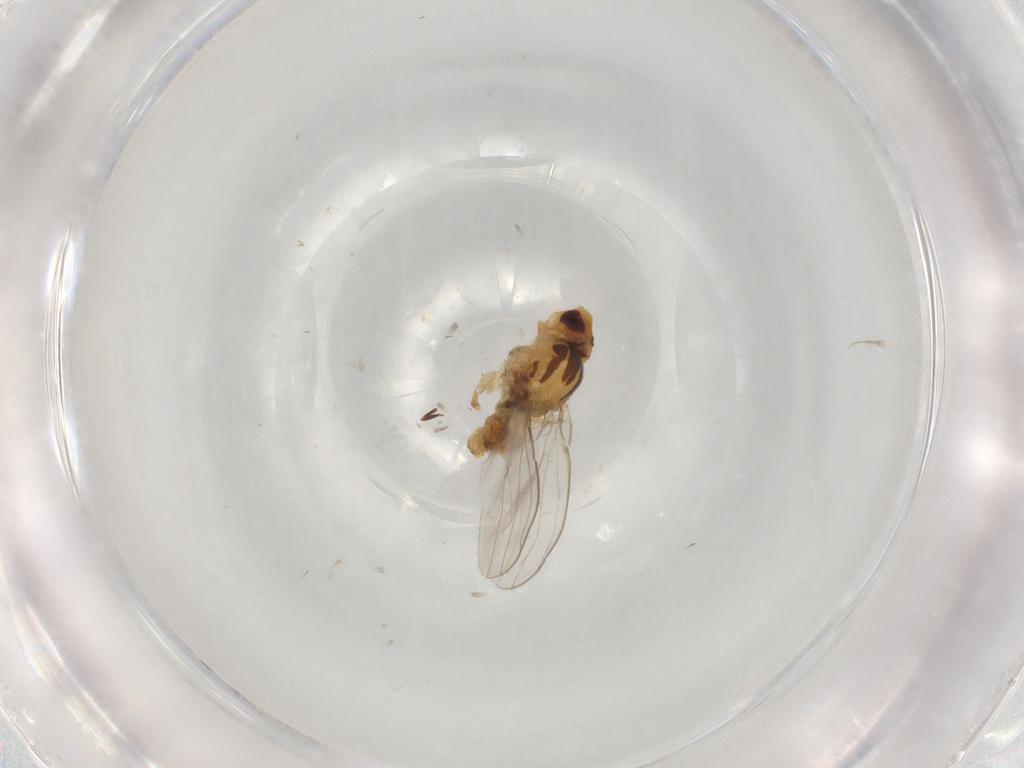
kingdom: Animalia
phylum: Arthropoda
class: Insecta
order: Diptera
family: Chloropidae
